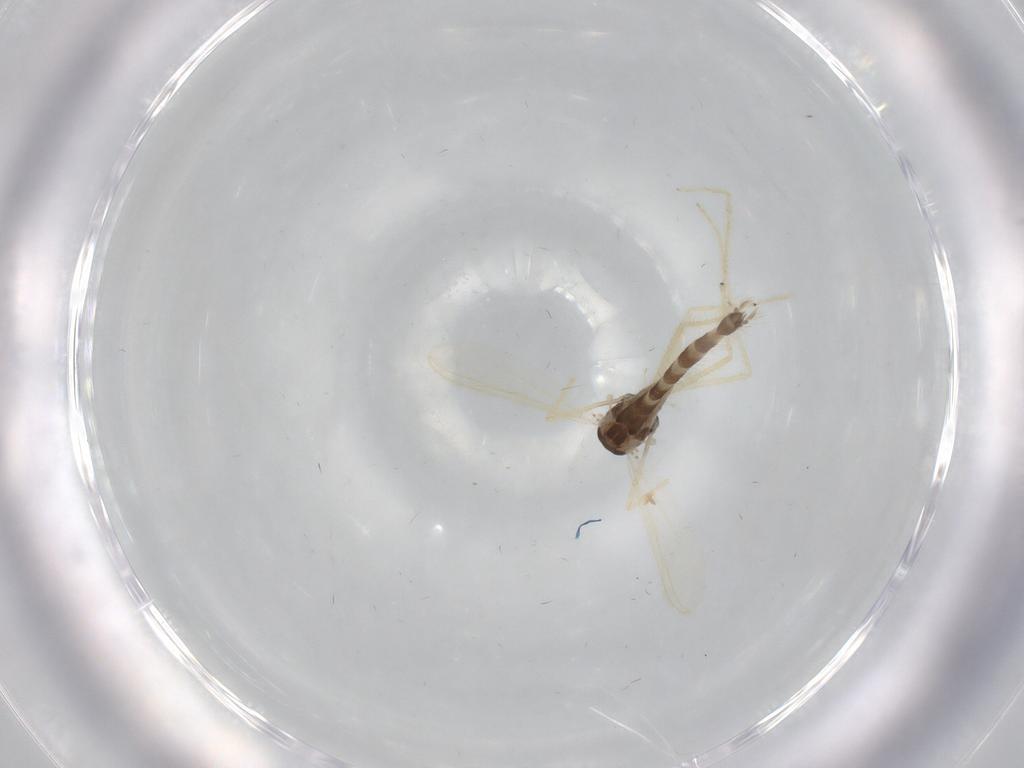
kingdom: Animalia
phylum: Arthropoda
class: Insecta
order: Diptera
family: Chironomidae
